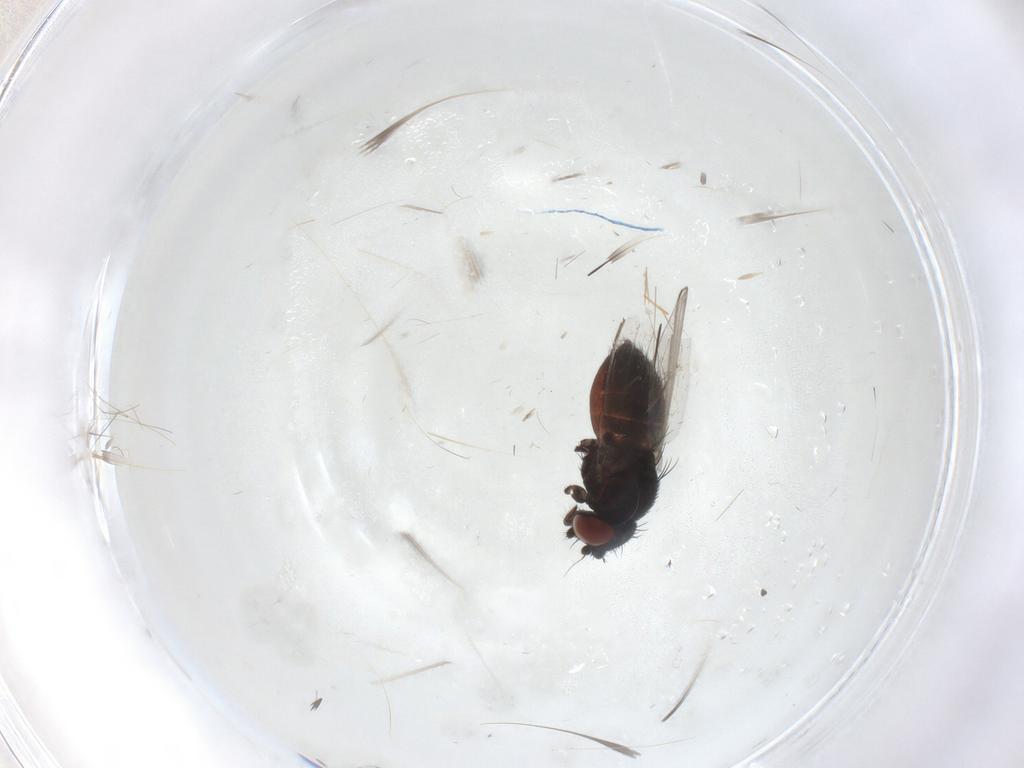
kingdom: Animalia
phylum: Arthropoda
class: Insecta
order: Diptera
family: Milichiidae
